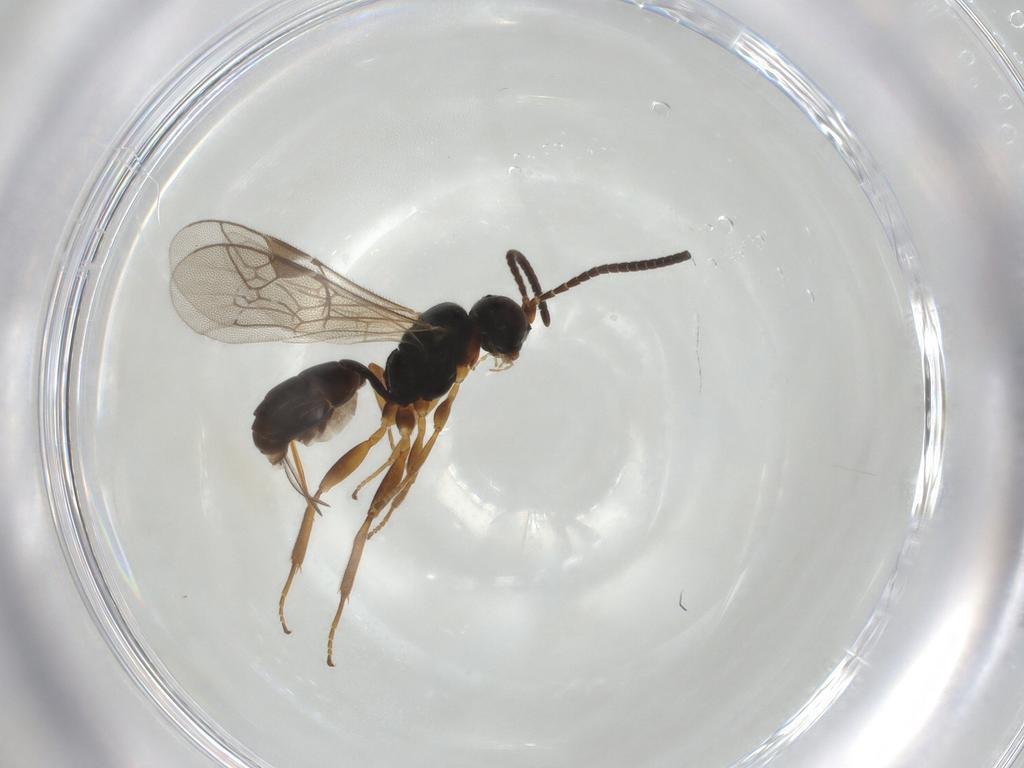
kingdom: Animalia
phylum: Arthropoda
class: Insecta
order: Hymenoptera
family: Ichneumonidae
